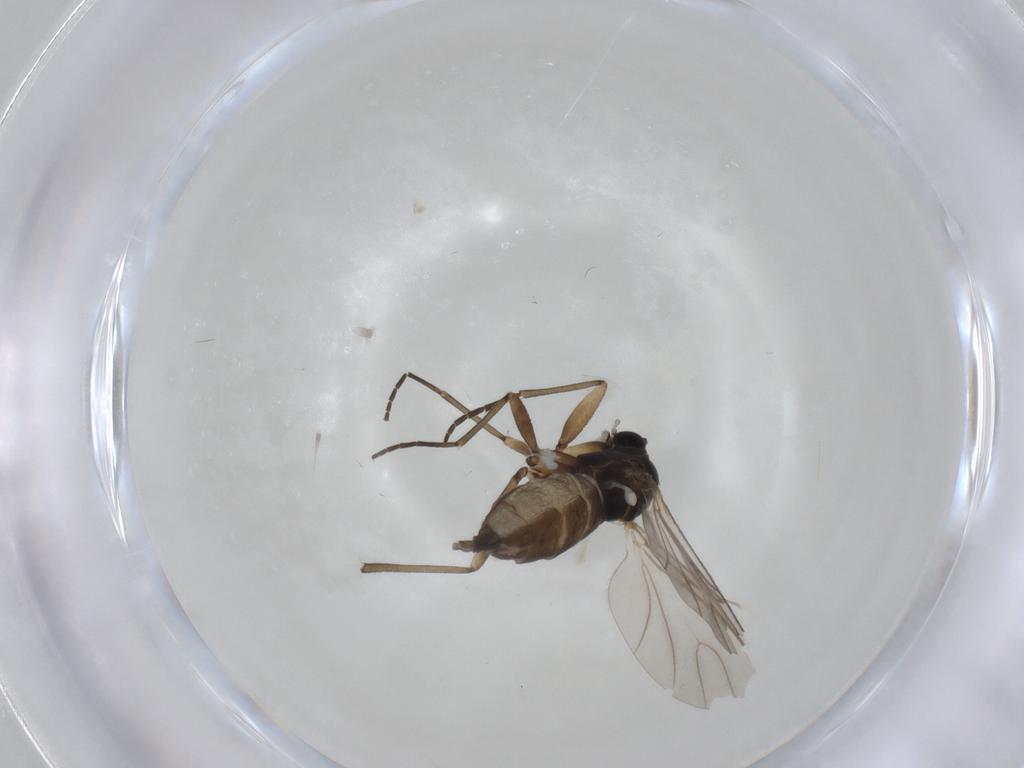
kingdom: Animalia
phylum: Arthropoda
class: Insecta
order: Diptera
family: Sciaridae
